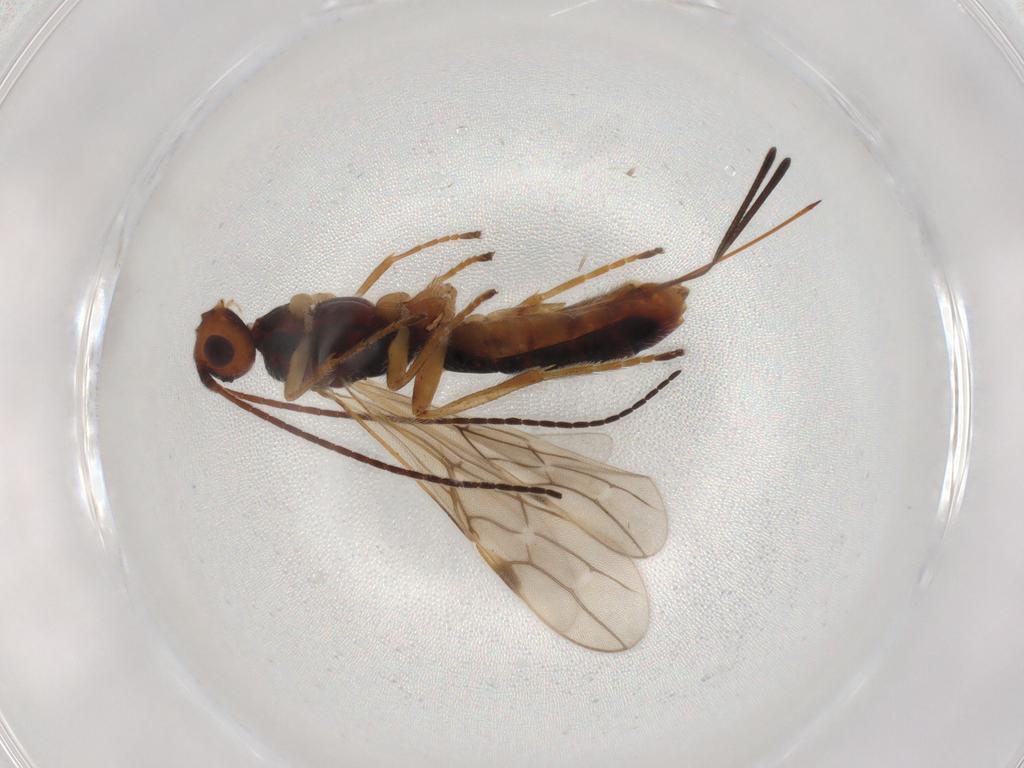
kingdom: Animalia
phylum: Arthropoda
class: Insecta
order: Hymenoptera
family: Braconidae
